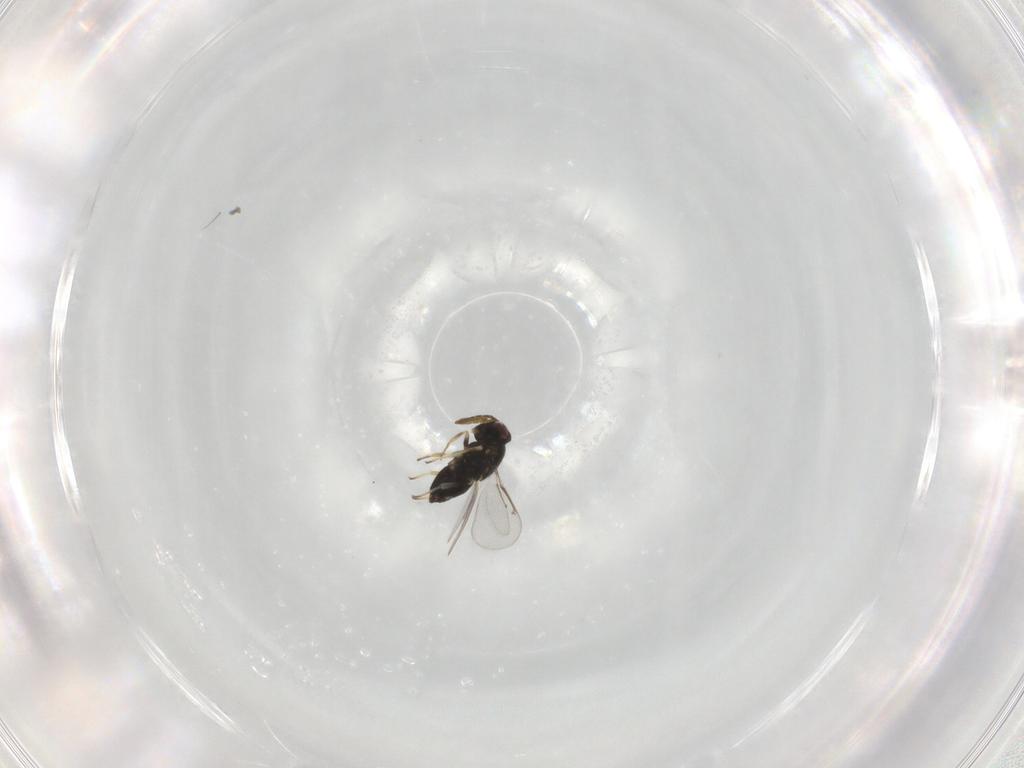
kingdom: Animalia
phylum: Arthropoda
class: Insecta
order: Hymenoptera
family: Aphelinidae
